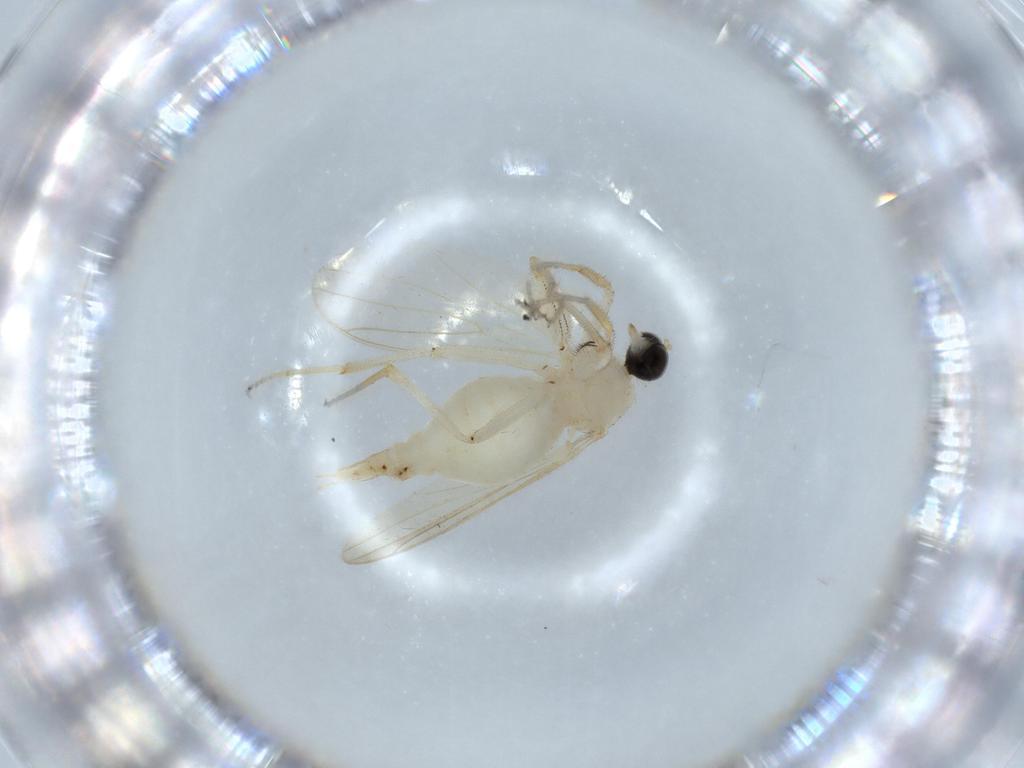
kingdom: Animalia
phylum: Arthropoda
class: Insecta
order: Diptera
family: Hybotidae
